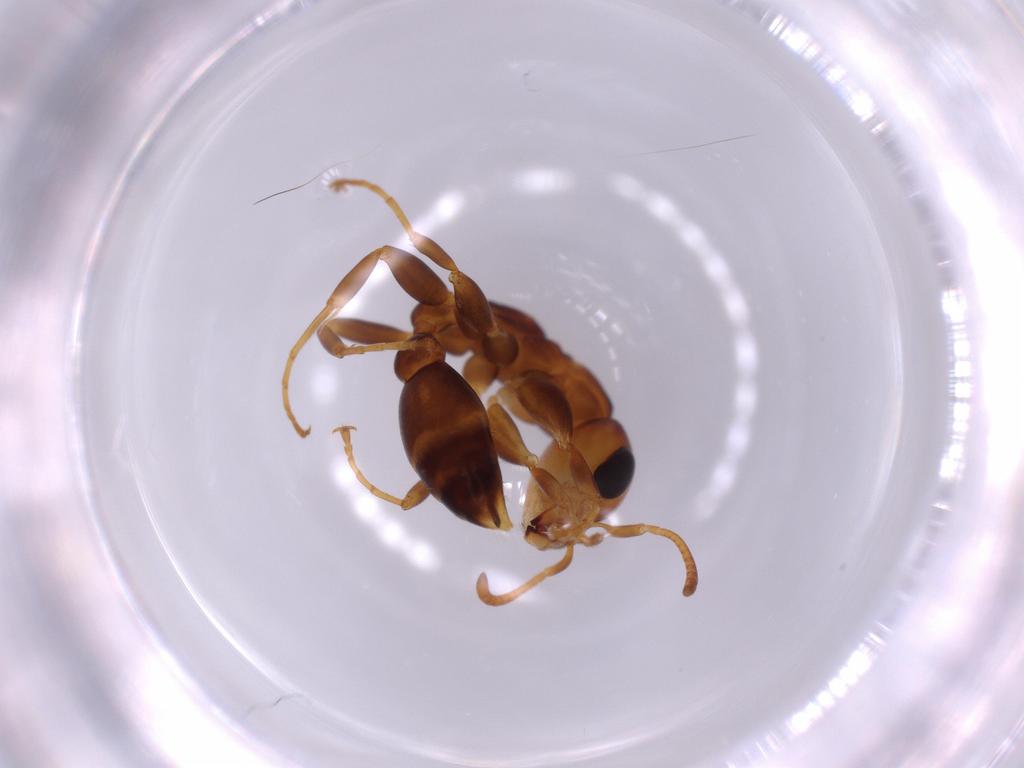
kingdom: Animalia
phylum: Arthropoda
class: Insecta
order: Hymenoptera
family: Formicidae
